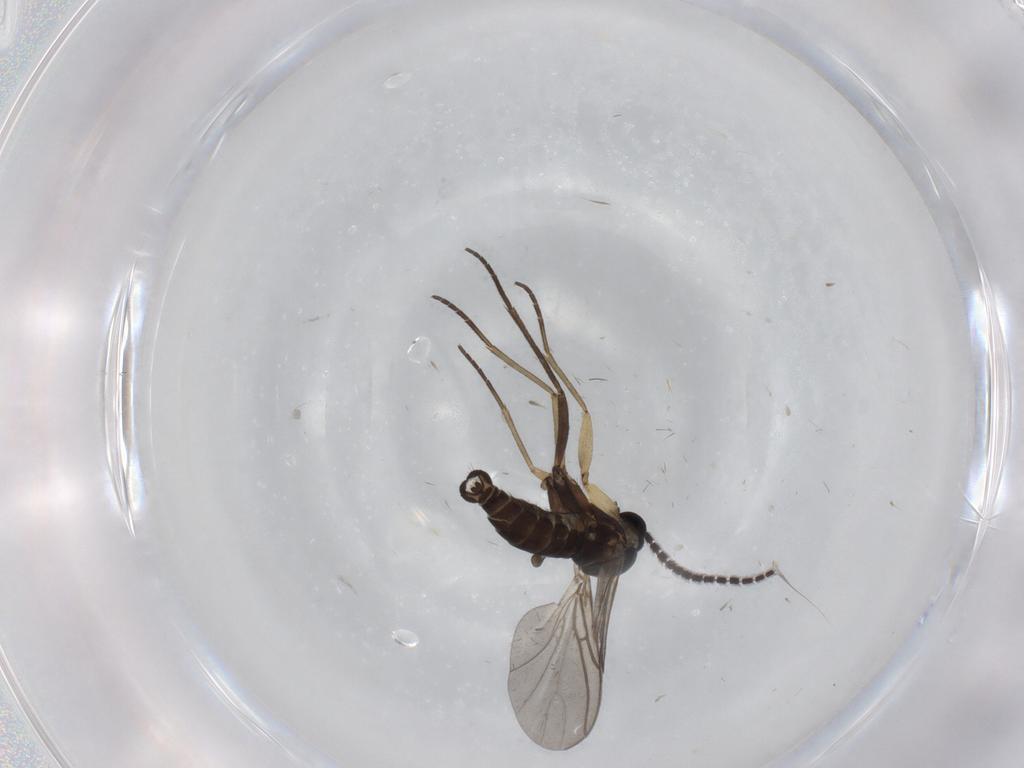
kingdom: Animalia
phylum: Arthropoda
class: Insecta
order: Diptera
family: Sciaridae
